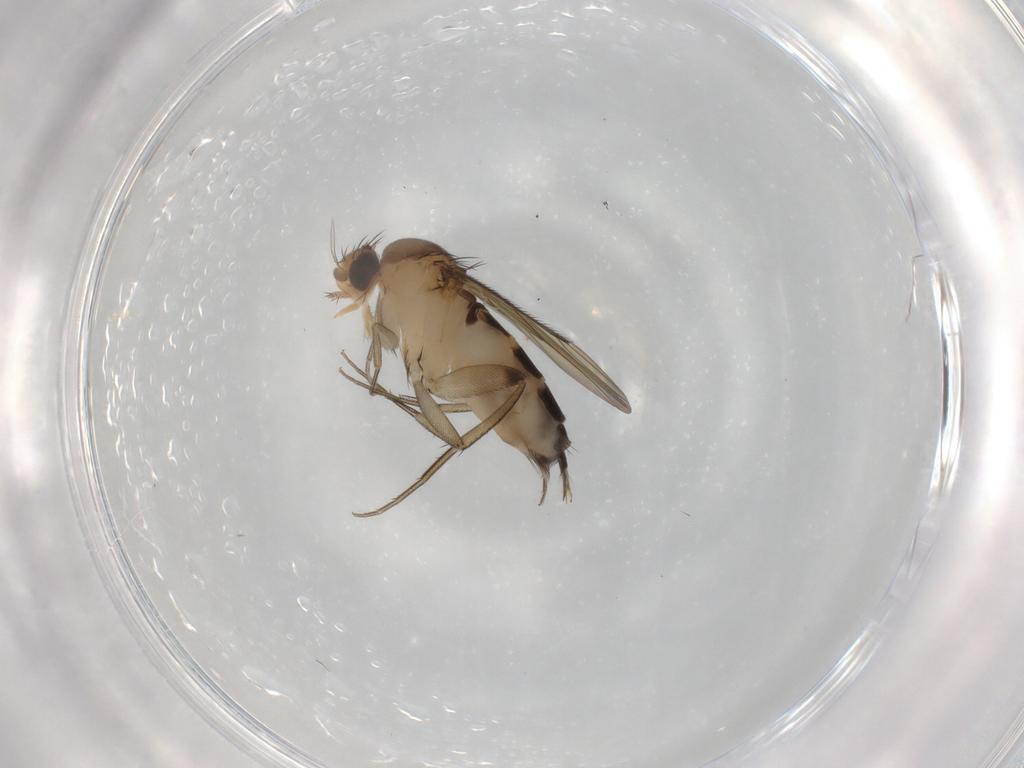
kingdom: Animalia
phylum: Arthropoda
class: Insecta
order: Diptera
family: Phoridae
